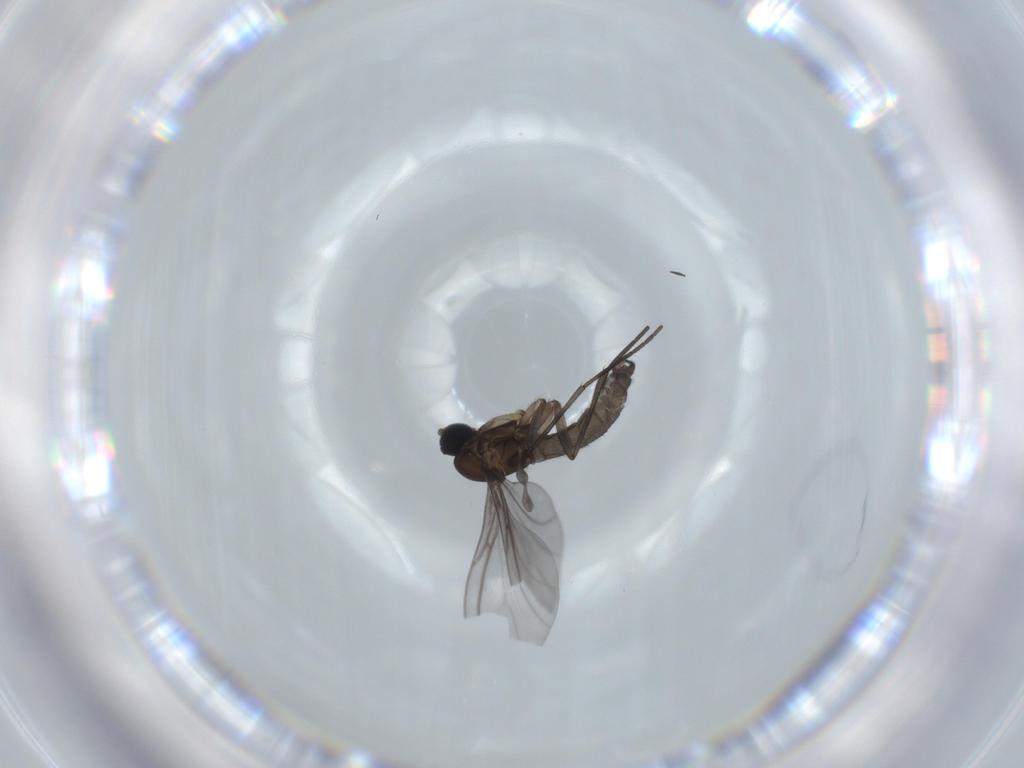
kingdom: Animalia
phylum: Arthropoda
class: Insecta
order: Diptera
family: Sciaridae
